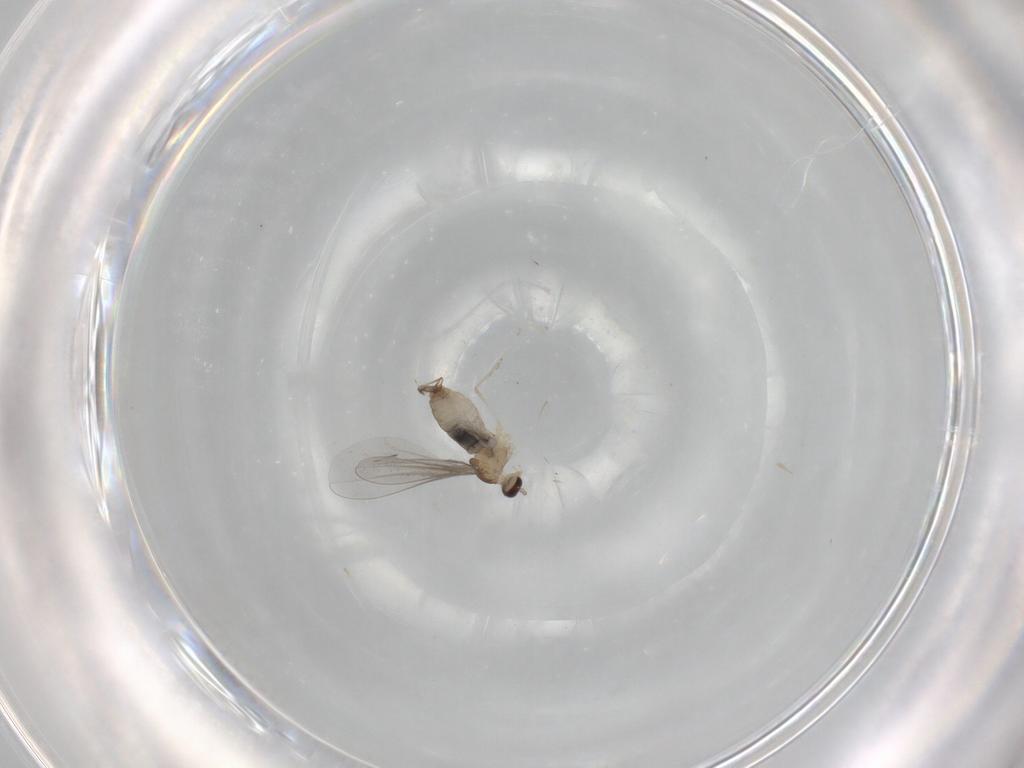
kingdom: Animalia
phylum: Arthropoda
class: Insecta
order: Diptera
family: Cecidomyiidae
